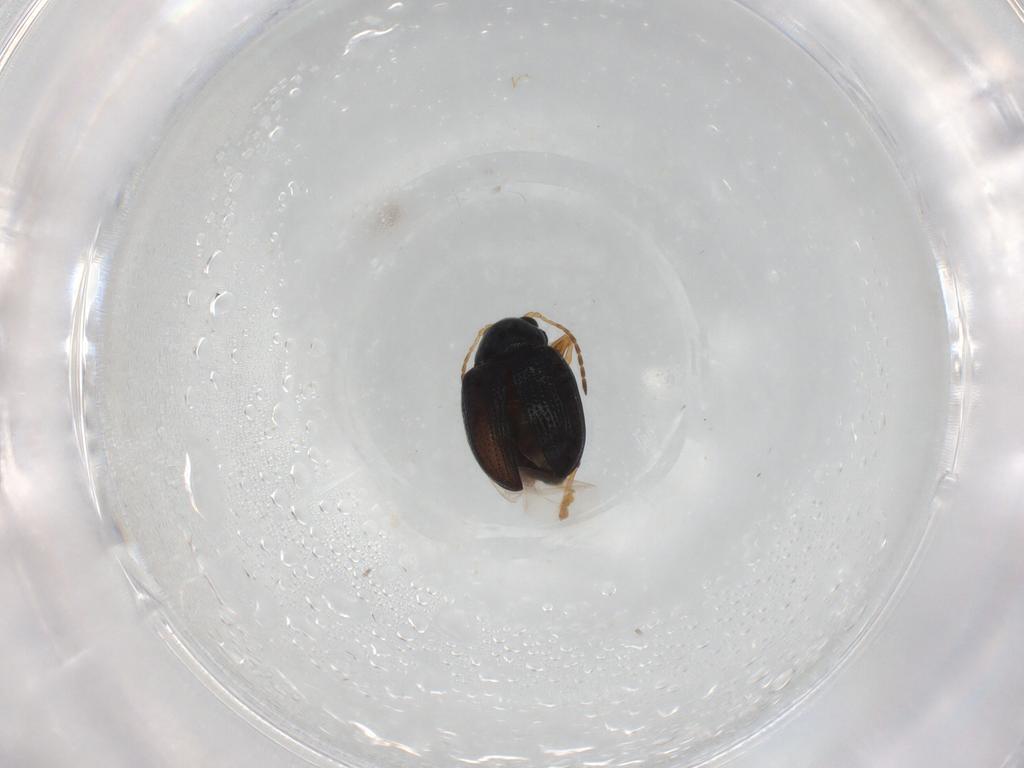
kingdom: Animalia
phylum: Arthropoda
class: Insecta
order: Coleoptera
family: Chrysomelidae
